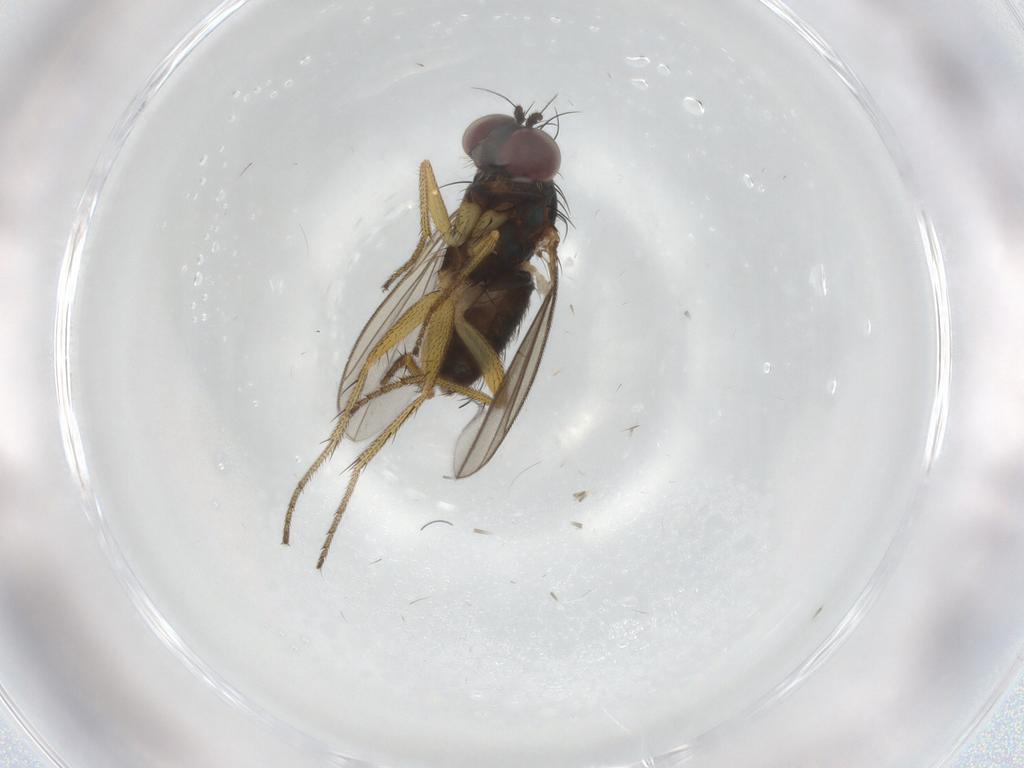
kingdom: Animalia
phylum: Arthropoda
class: Insecta
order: Diptera
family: Dolichopodidae
